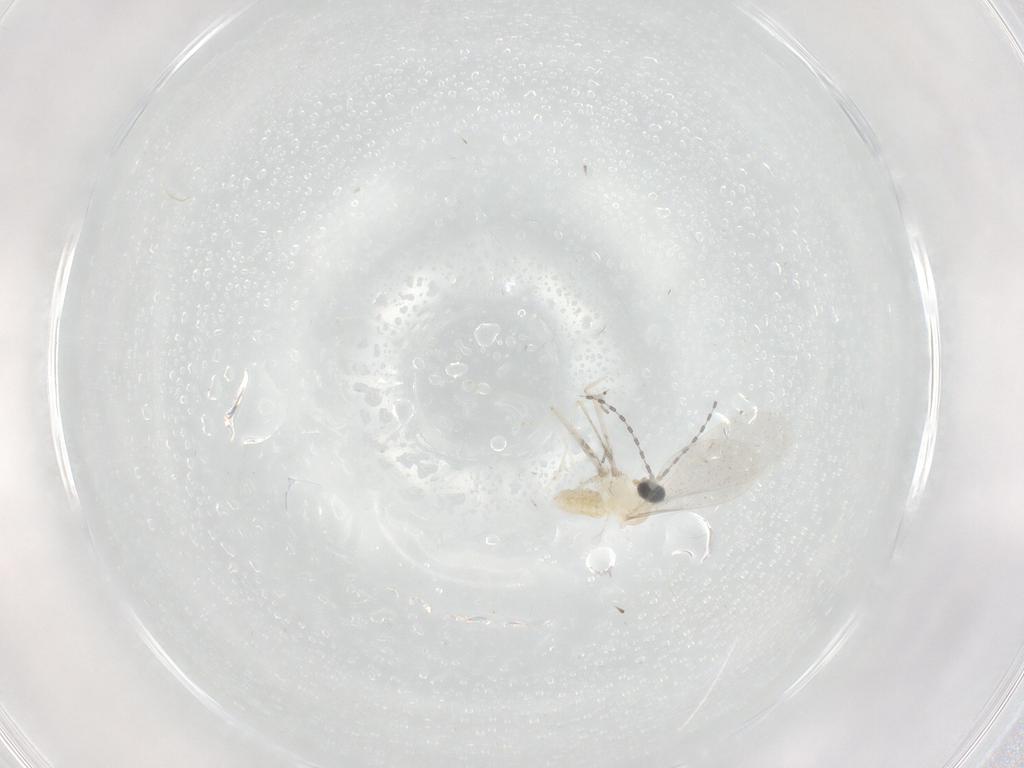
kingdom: Animalia
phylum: Arthropoda
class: Insecta
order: Diptera
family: Cecidomyiidae
